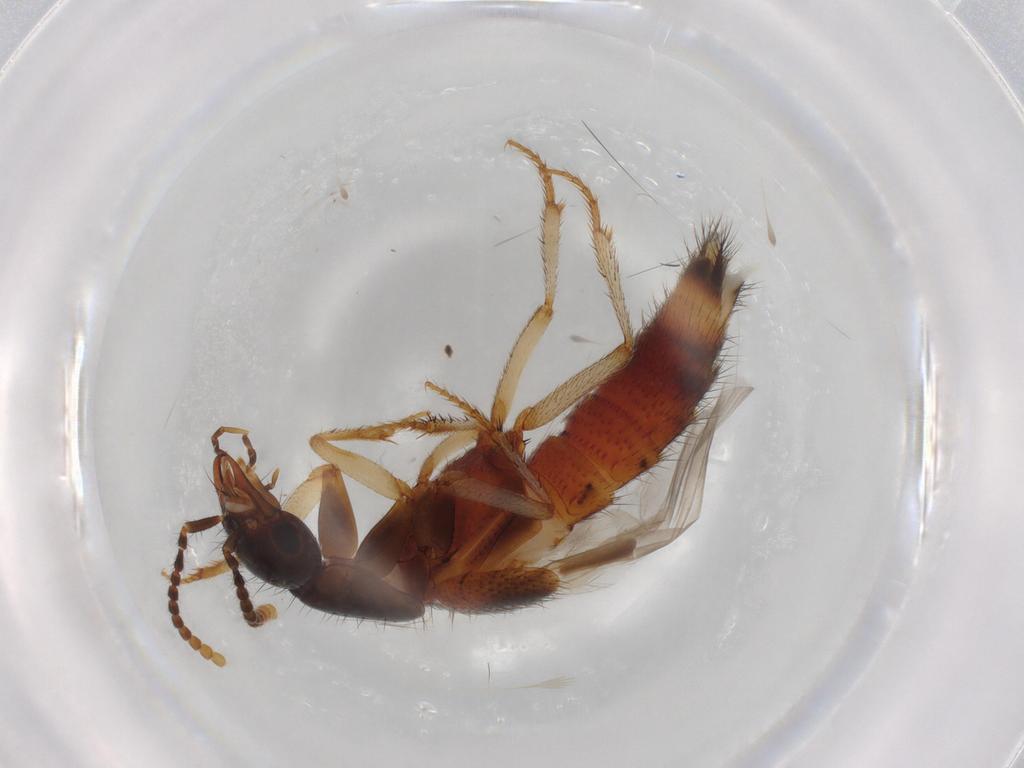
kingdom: Animalia
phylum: Arthropoda
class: Insecta
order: Coleoptera
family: Staphylinidae
